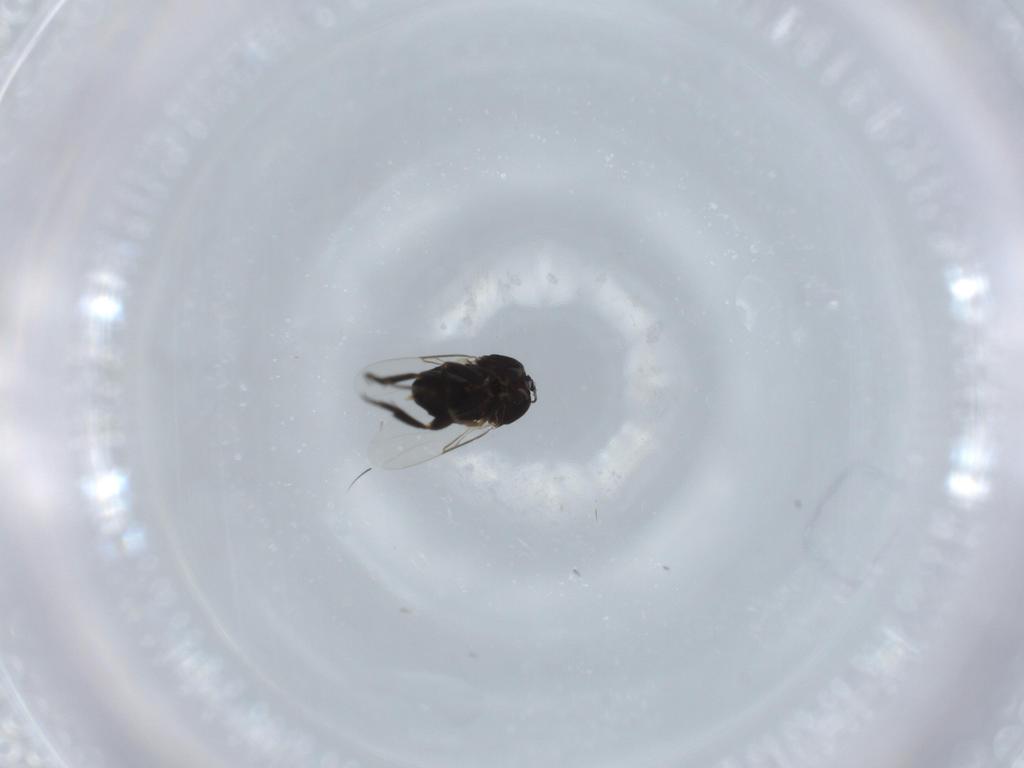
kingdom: Animalia
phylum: Arthropoda
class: Insecta
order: Diptera
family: Phoridae
